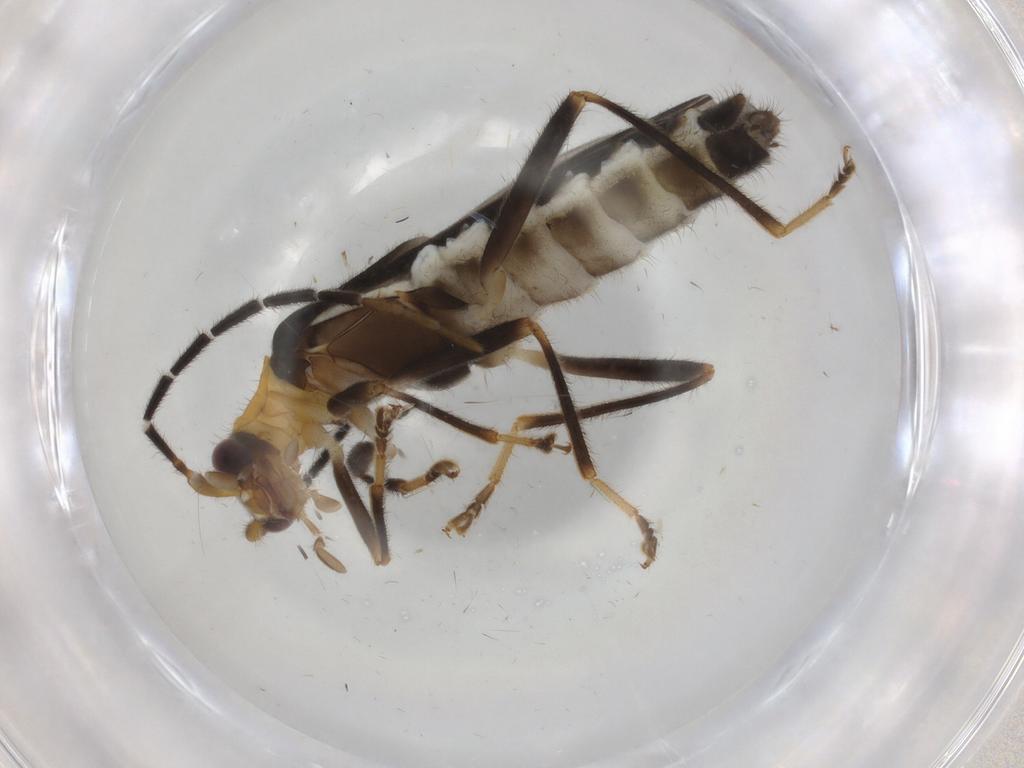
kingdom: Animalia
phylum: Arthropoda
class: Insecta
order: Coleoptera
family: Cantharidae
